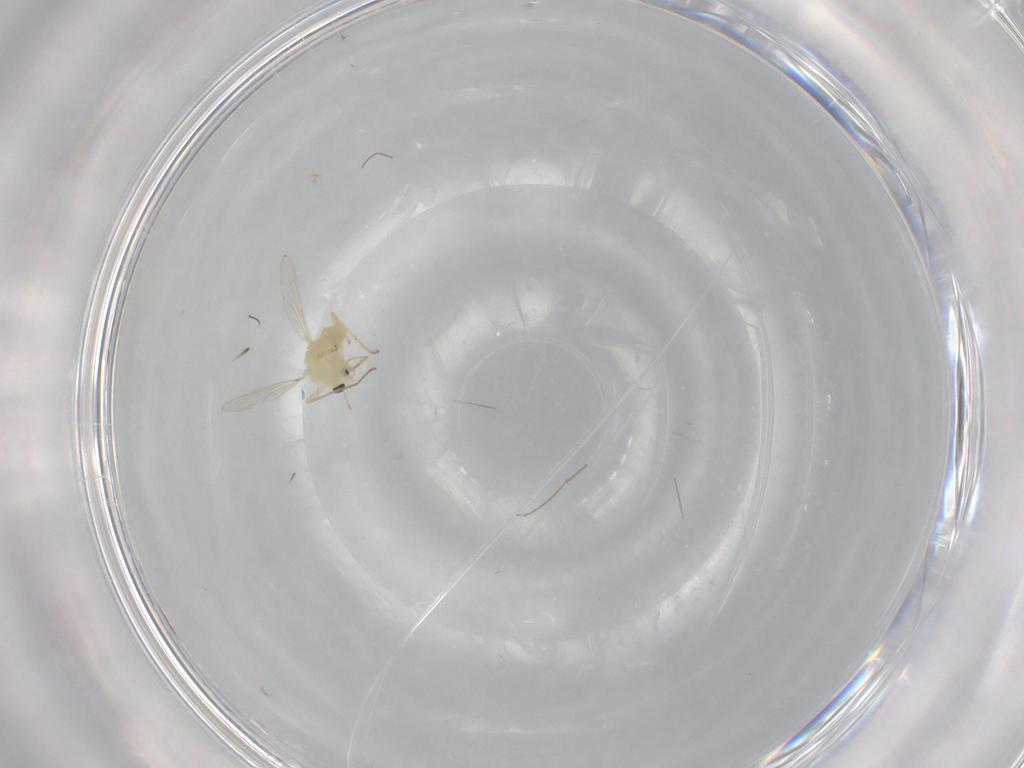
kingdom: Animalia
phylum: Arthropoda
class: Insecta
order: Diptera
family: Chironomidae
